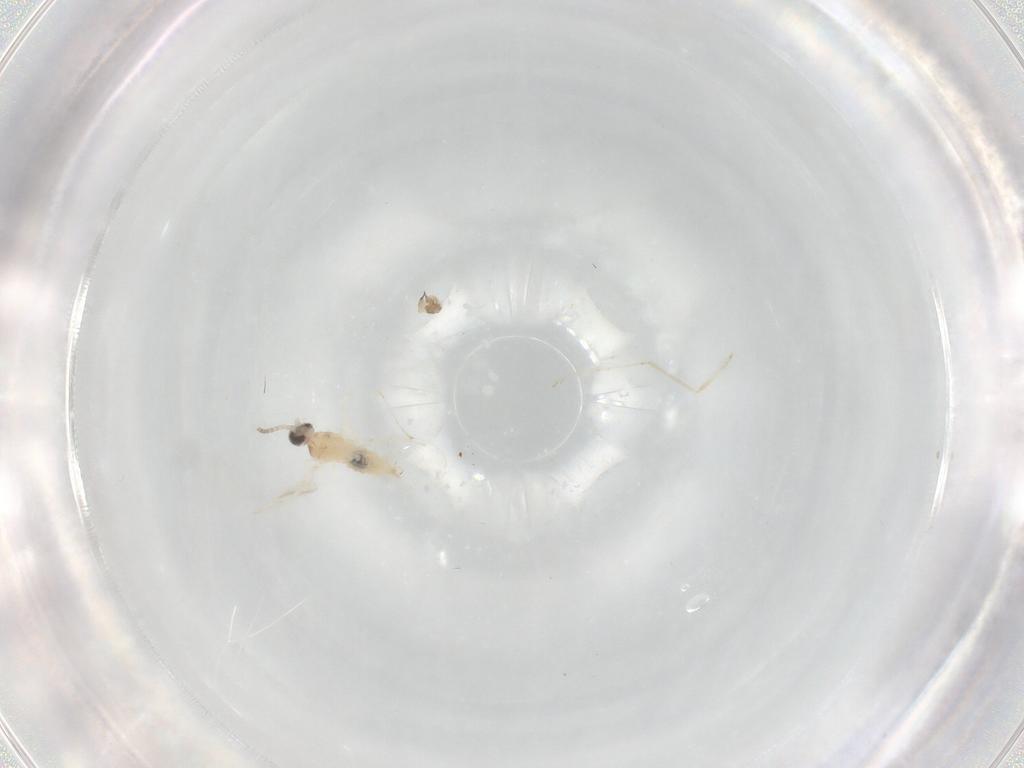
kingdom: Animalia
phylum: Arthropoda
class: Insecta
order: Diptera
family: Cecidomyiidae
